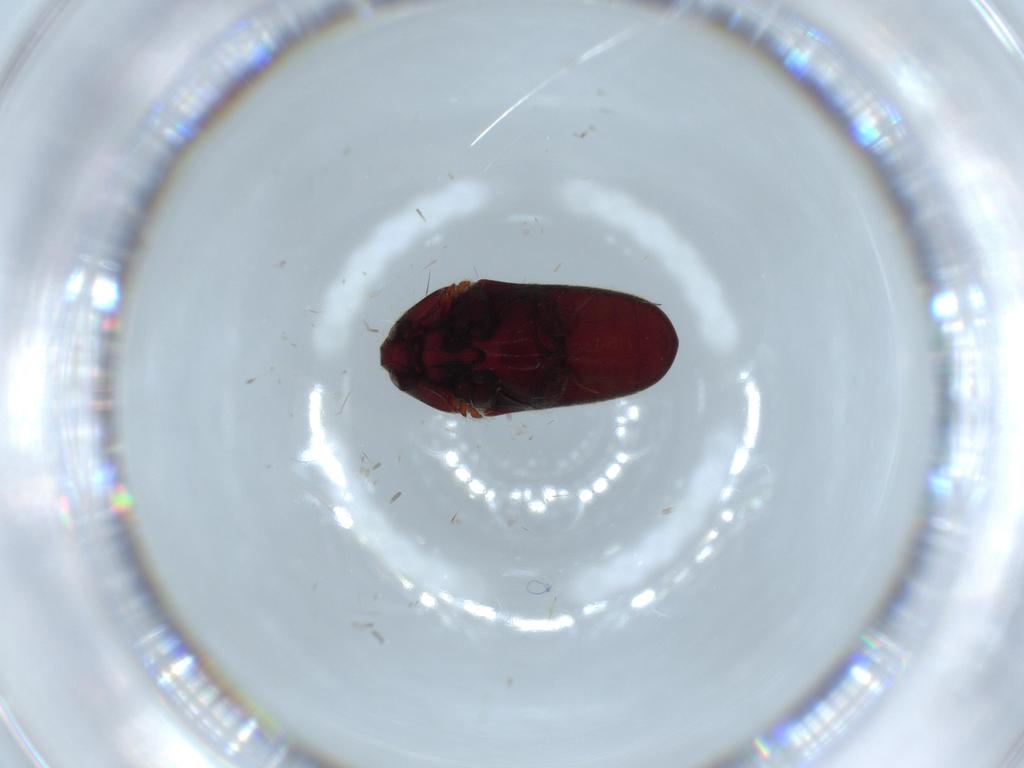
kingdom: Animalia
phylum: Arthropoda
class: Insecta
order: Coleoptera
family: Throscidae
